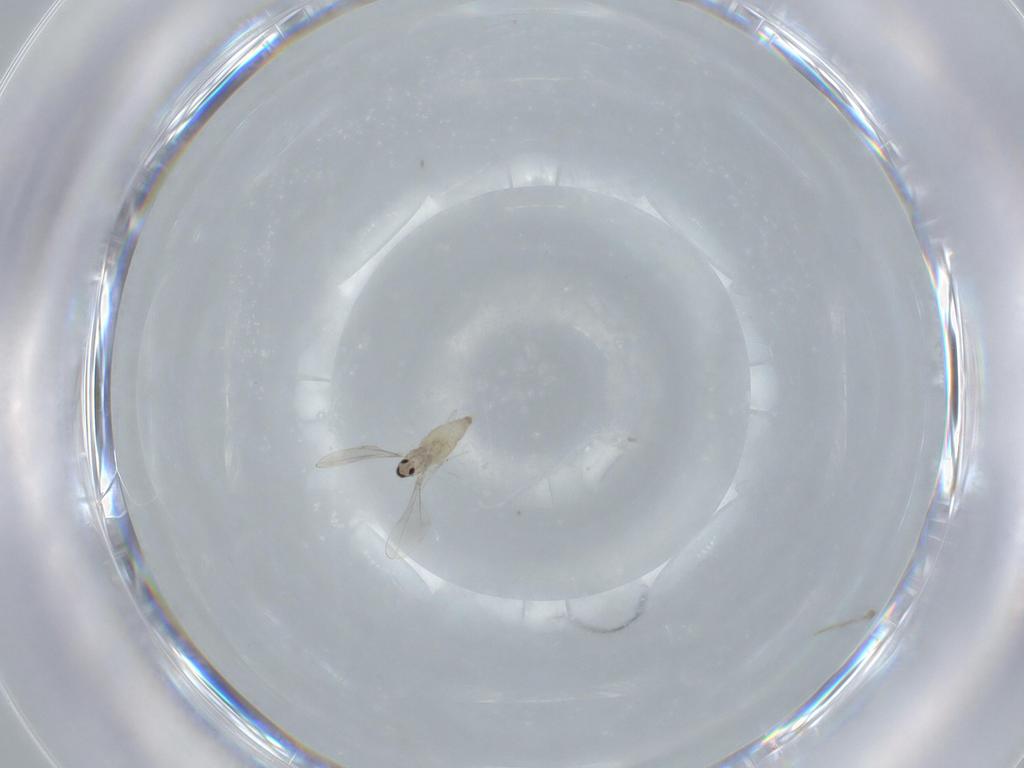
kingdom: Animalia
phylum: Arthropoda
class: Insecta
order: Diptera
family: Cecidomyiidae
